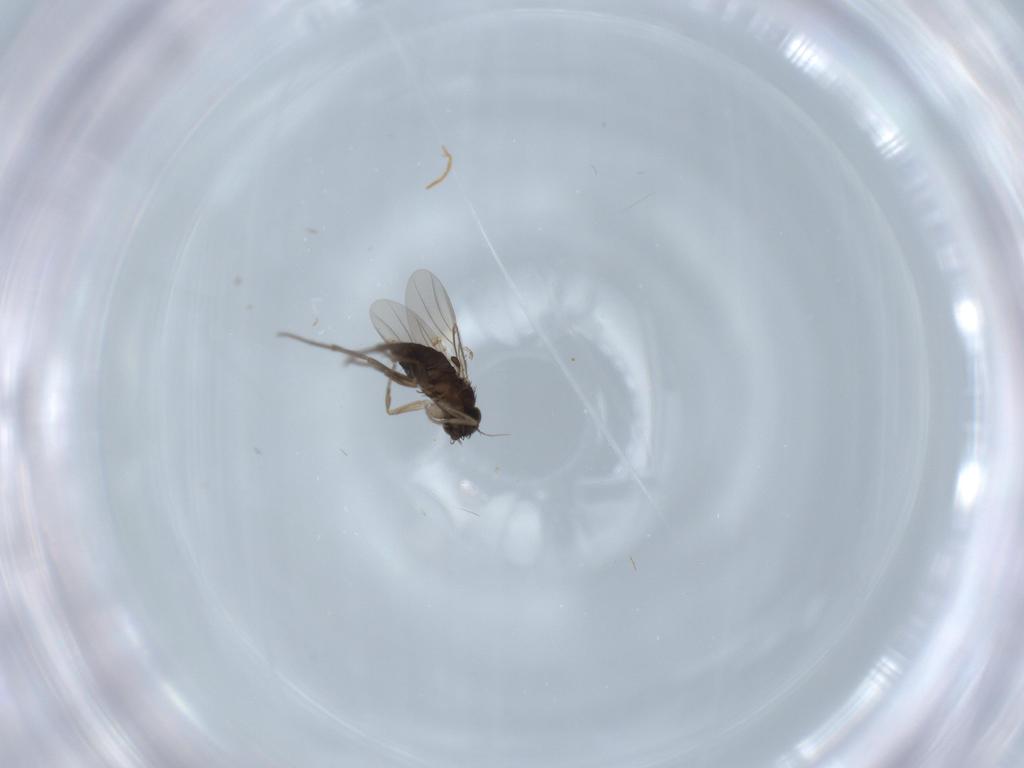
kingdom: Animalia
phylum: Arthropoda
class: Insecta
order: Diptera
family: Phoridae
